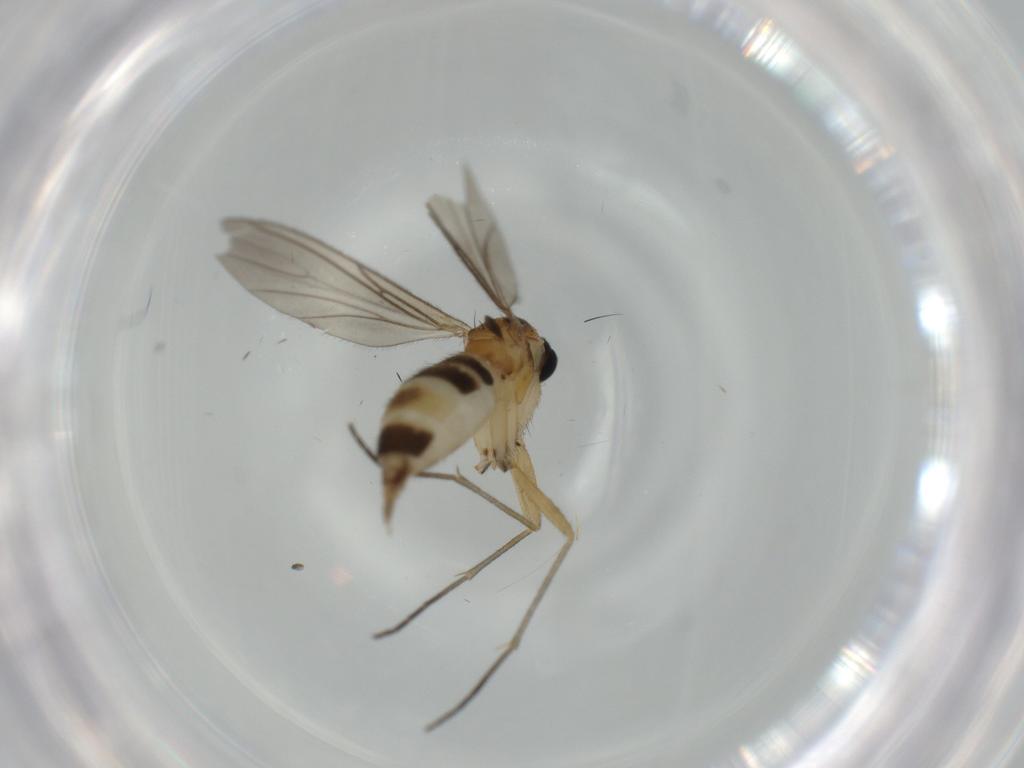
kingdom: Animalia
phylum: Arthropoda
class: Insecta
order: Diptera
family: Sciaridae
